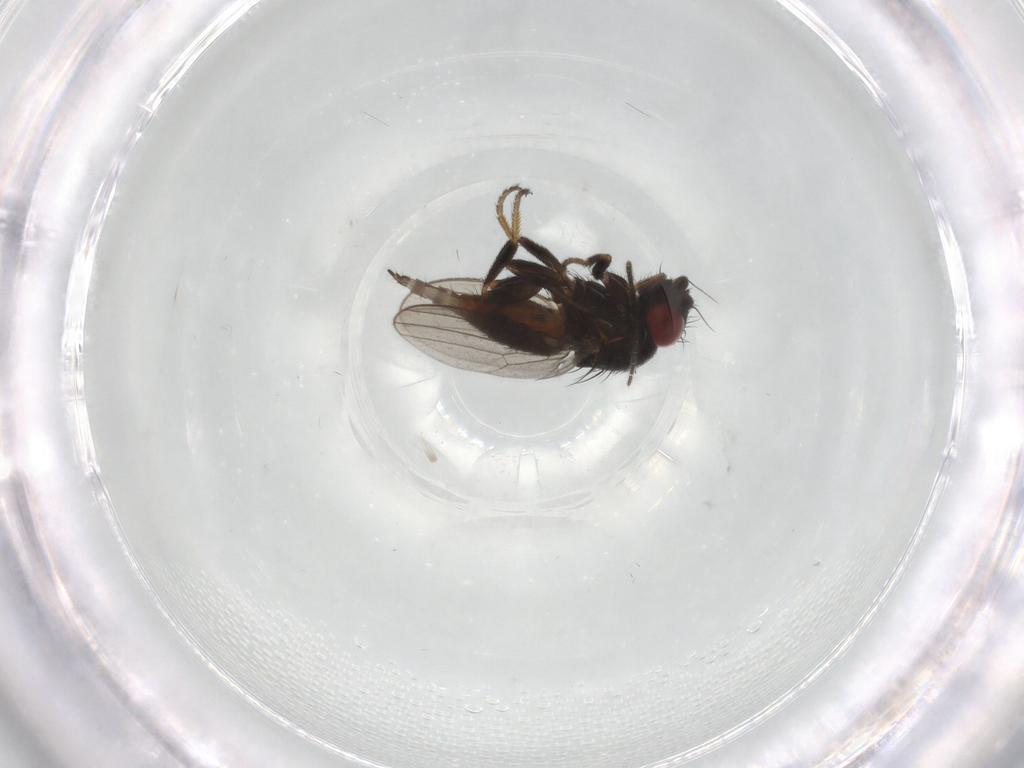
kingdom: Animalia
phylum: Arthropoda
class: Insecta
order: Diptera
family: Milichiidae
